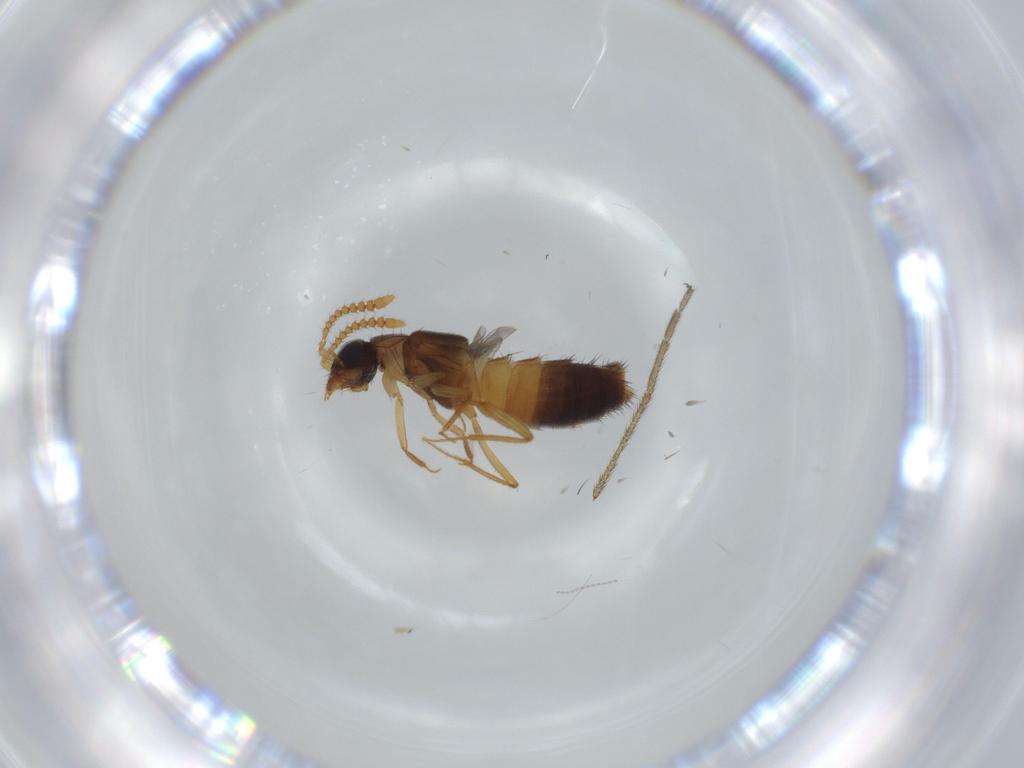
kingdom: Animalia
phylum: Arthropoda
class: Insecta
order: Coleoptera
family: Staphylinidae
